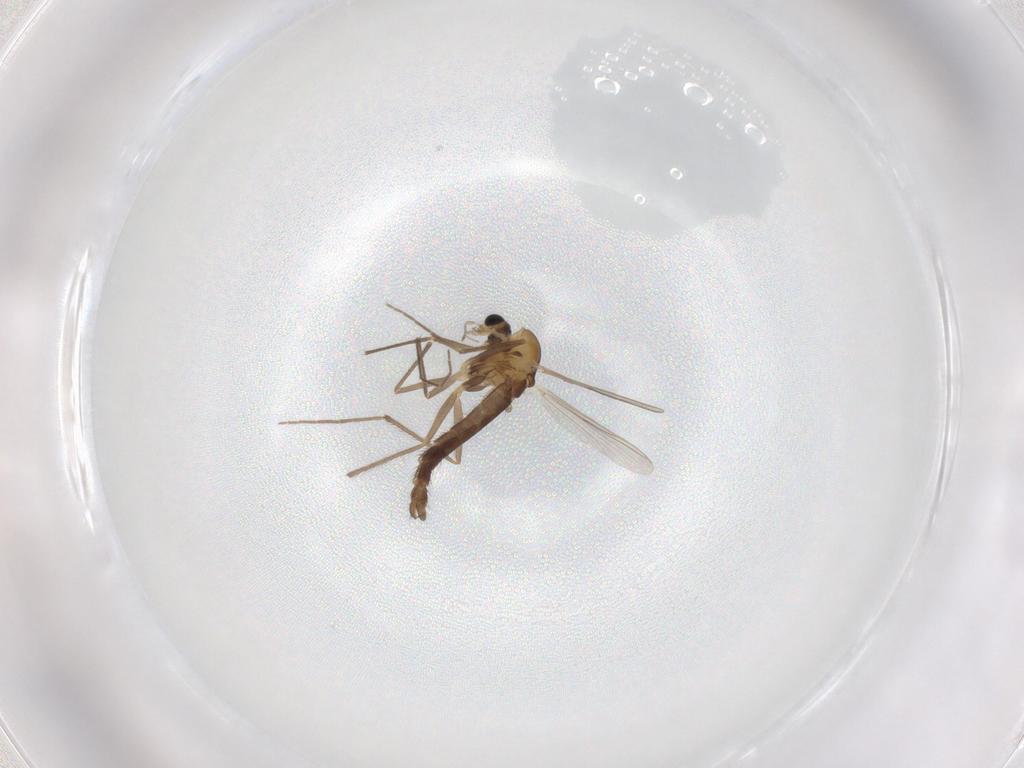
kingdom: Animalia
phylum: Arthropoda
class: Insecta
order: Diptera
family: Chironomidae
